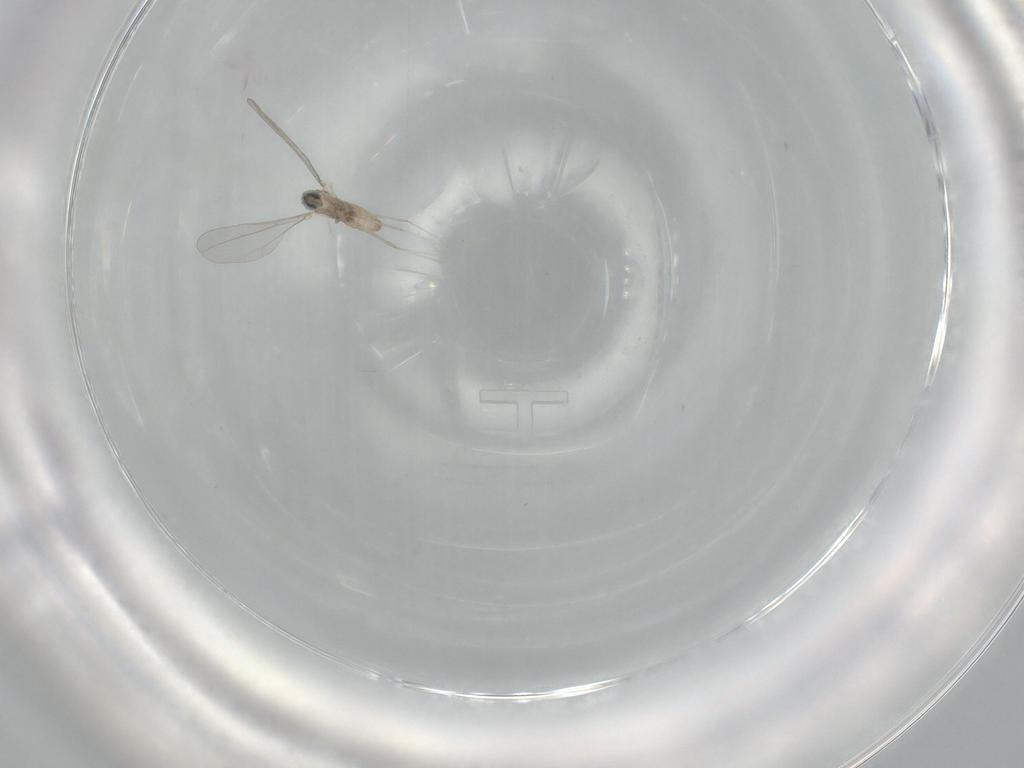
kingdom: Animalia
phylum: Arthropoda
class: Insecta
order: Diptera
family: Cecidomyiidae
